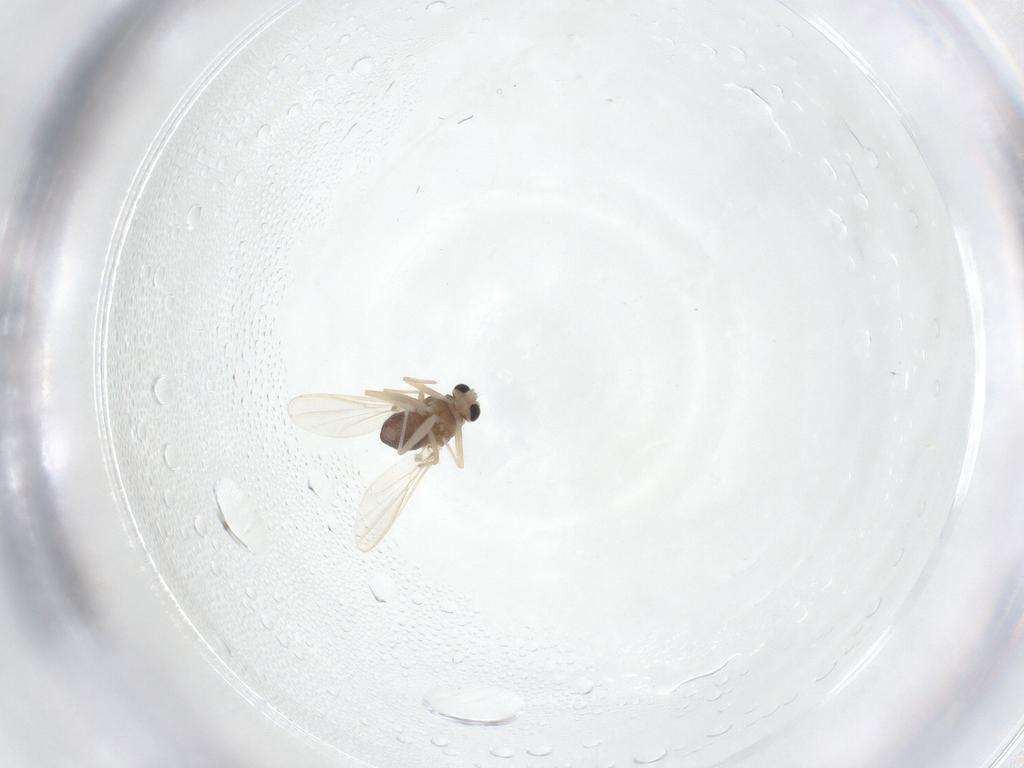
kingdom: Animalia
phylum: Arthropoda
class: Insecta
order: Diptera
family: Chironomidae
